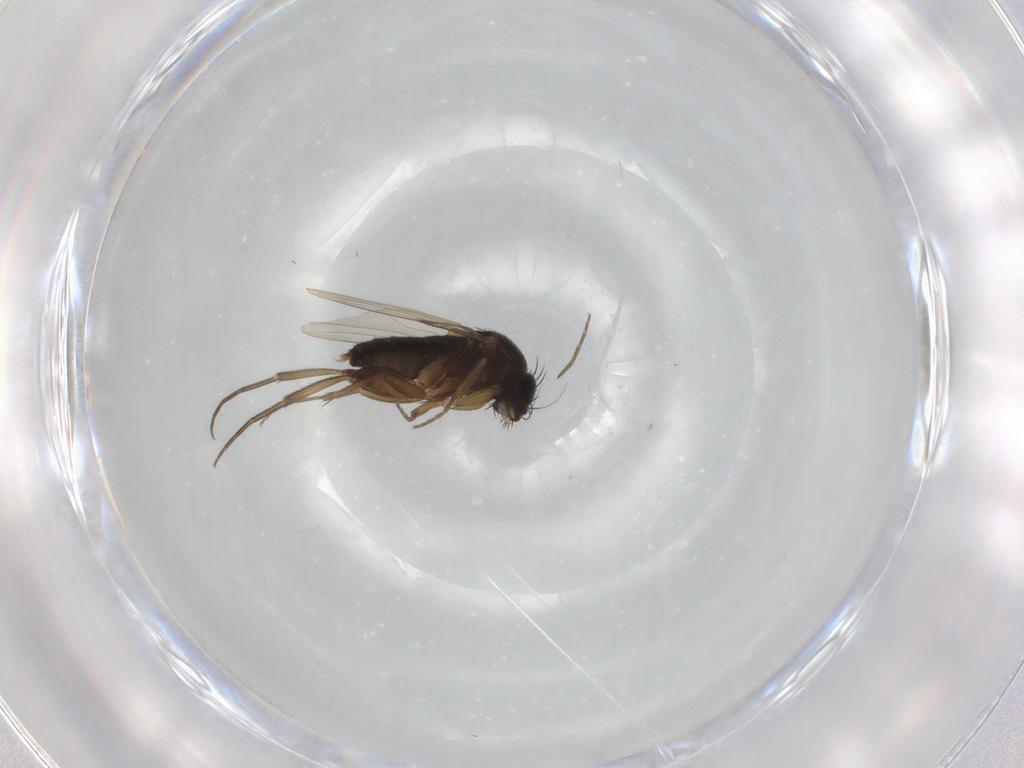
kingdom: Animalia
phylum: Arthropoda
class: Insecta
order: Diptera
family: Phoridae
